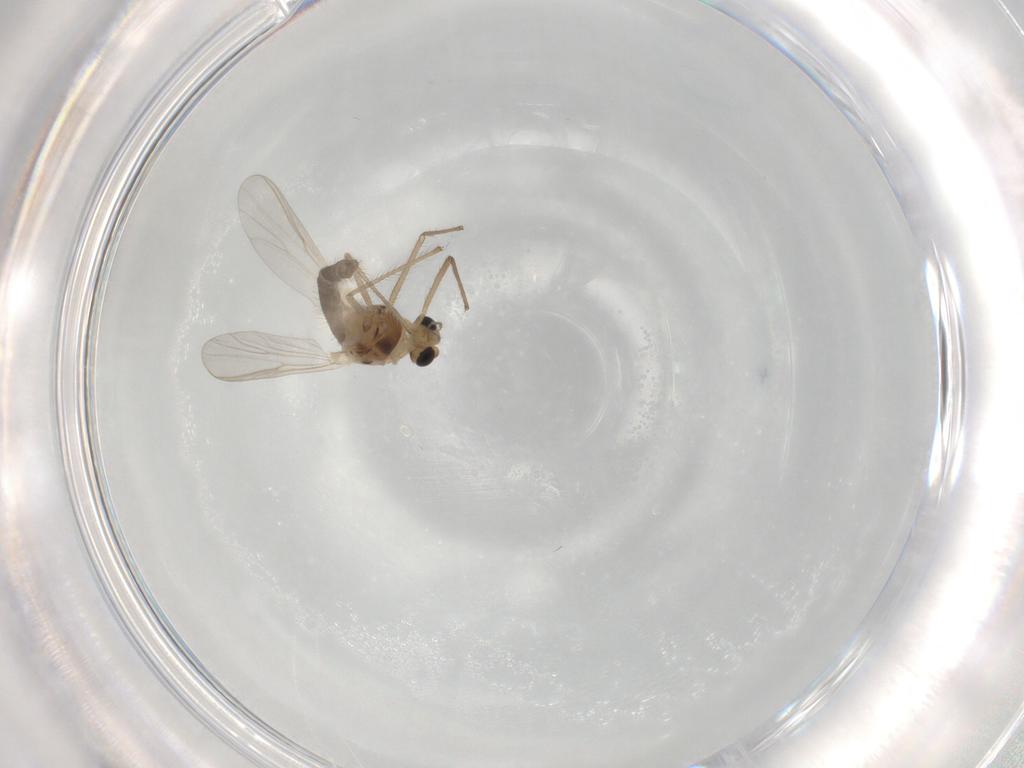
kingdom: Animalia
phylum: Arthropoda
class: Insecta
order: Diptera
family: Chironomidae
